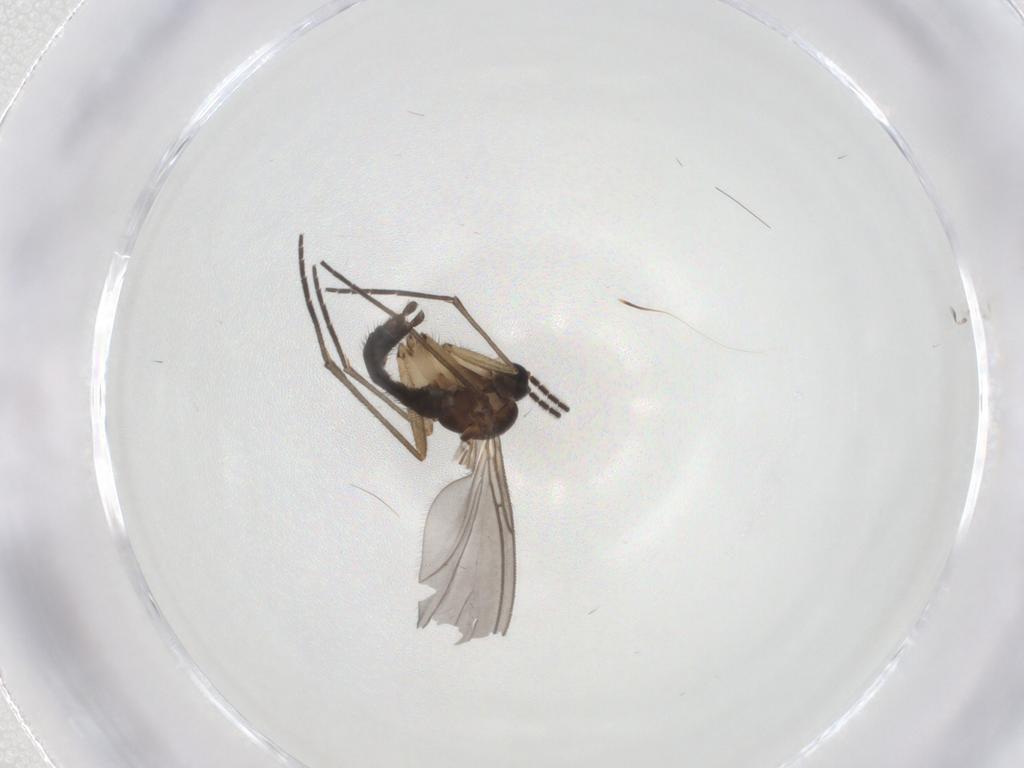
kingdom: Animalia
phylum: Arthropoda
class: Insecta
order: Diptera
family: Sciaridae
